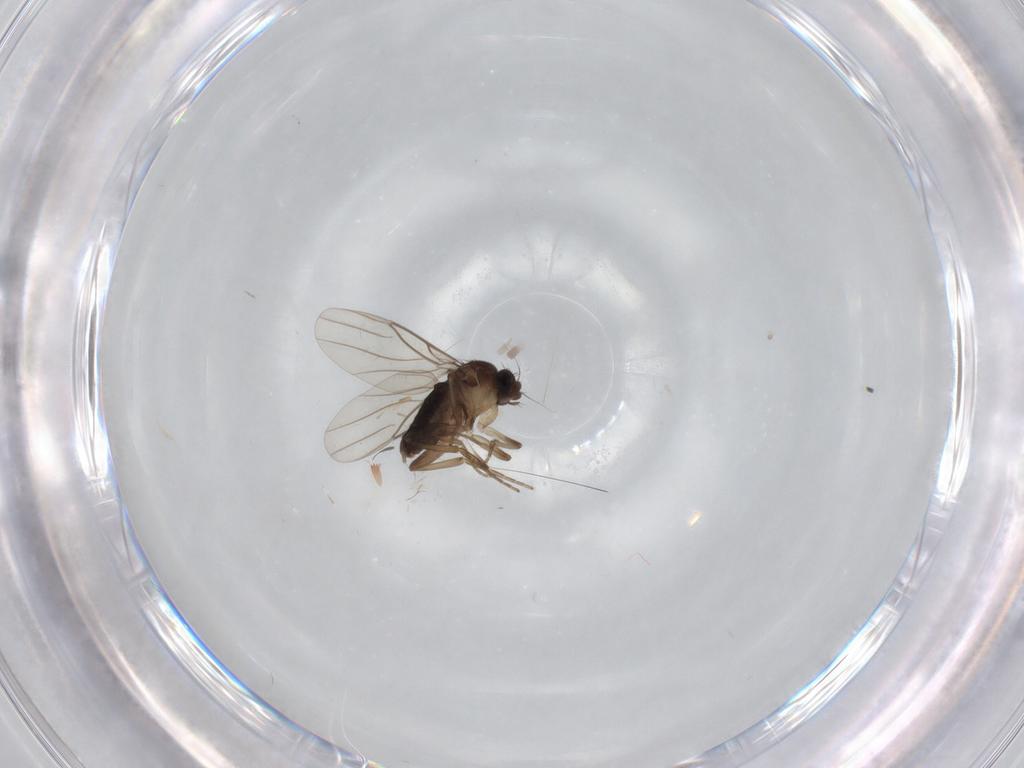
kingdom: Animalia
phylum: Arthropoda
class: Insecta
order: Diptera
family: Phoridae
